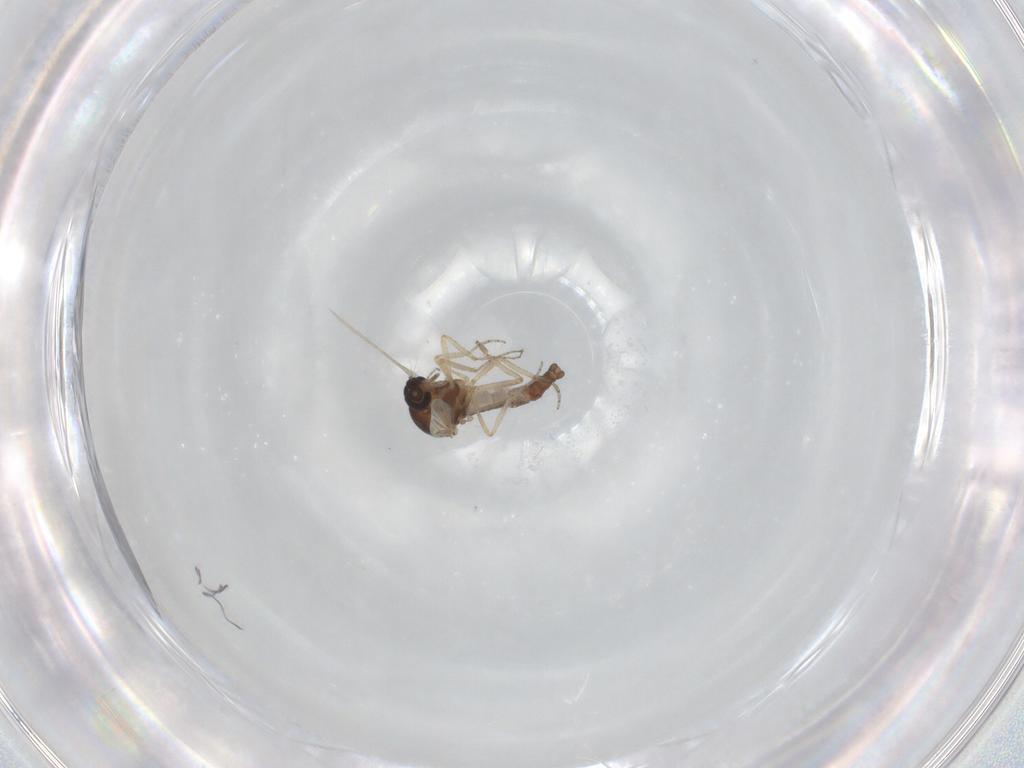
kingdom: Animalia
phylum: Arthropoda
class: Insecta
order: Diptera
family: Ceratopogonidae
